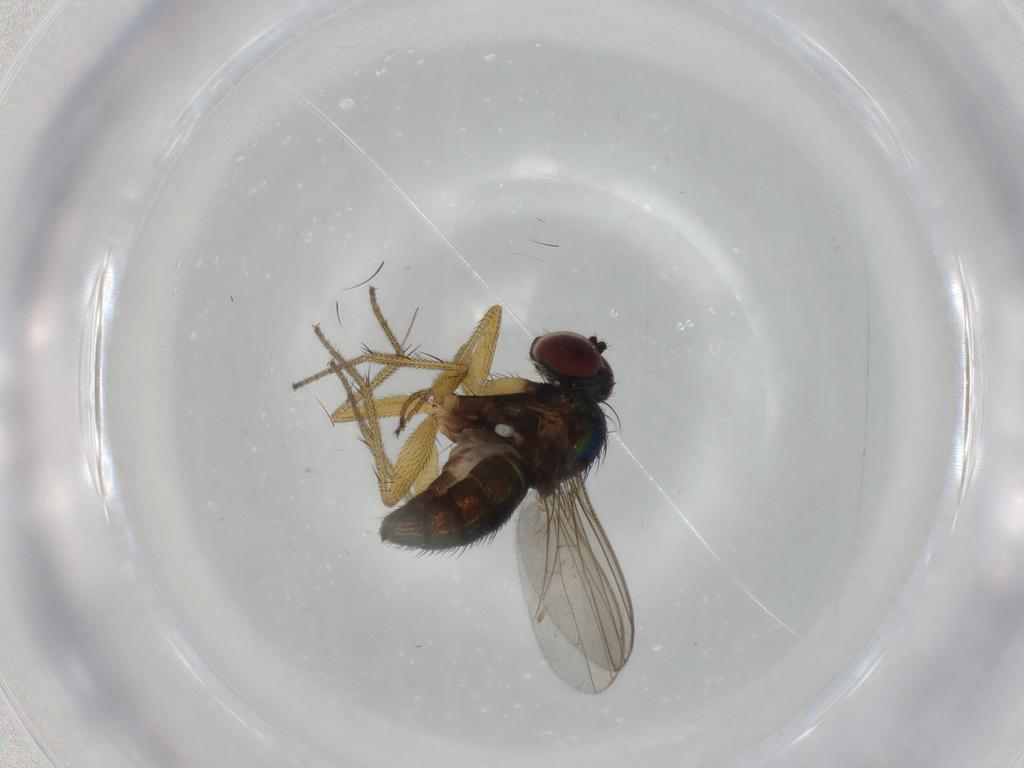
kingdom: Animalia
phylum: Arthropoda
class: Insecta
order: Diptera
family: Dolichopodidae
